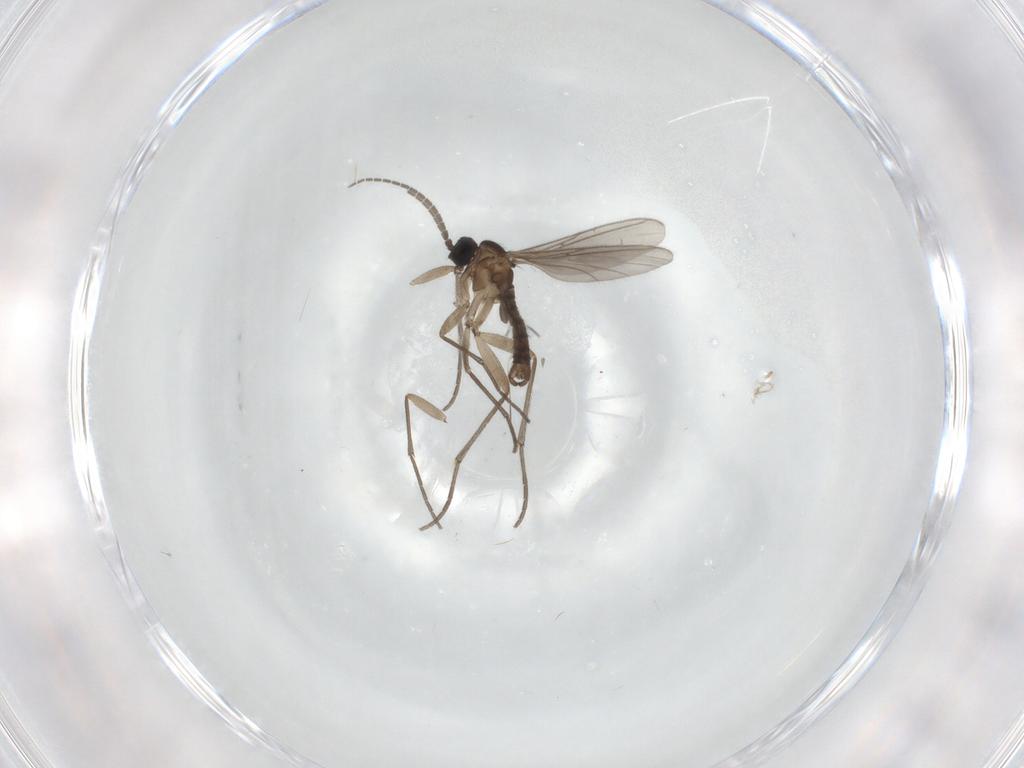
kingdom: Animalia
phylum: Arthropoda
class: Insecta
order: Diptera
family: Sciaridae
